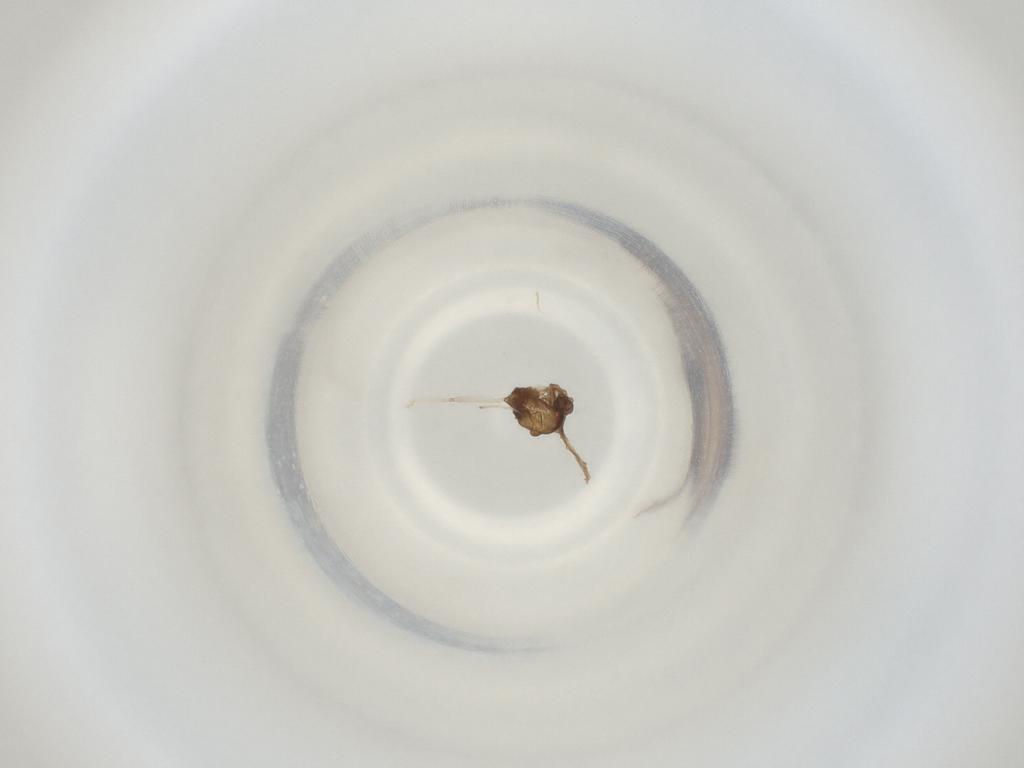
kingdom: Animalia
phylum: Arthropoda
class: Insecta
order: Diptera
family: Cecidomyiidae
